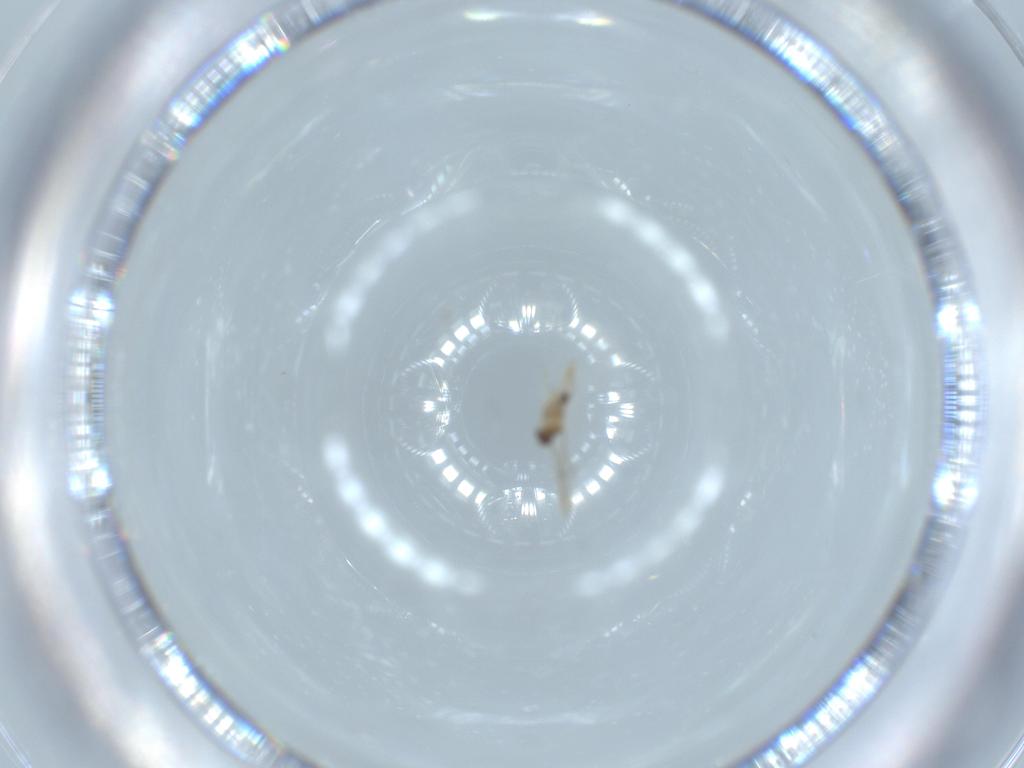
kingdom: Animalia
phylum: Arthropoda
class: Insecta
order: Diptera
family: Cecidomyiidae
